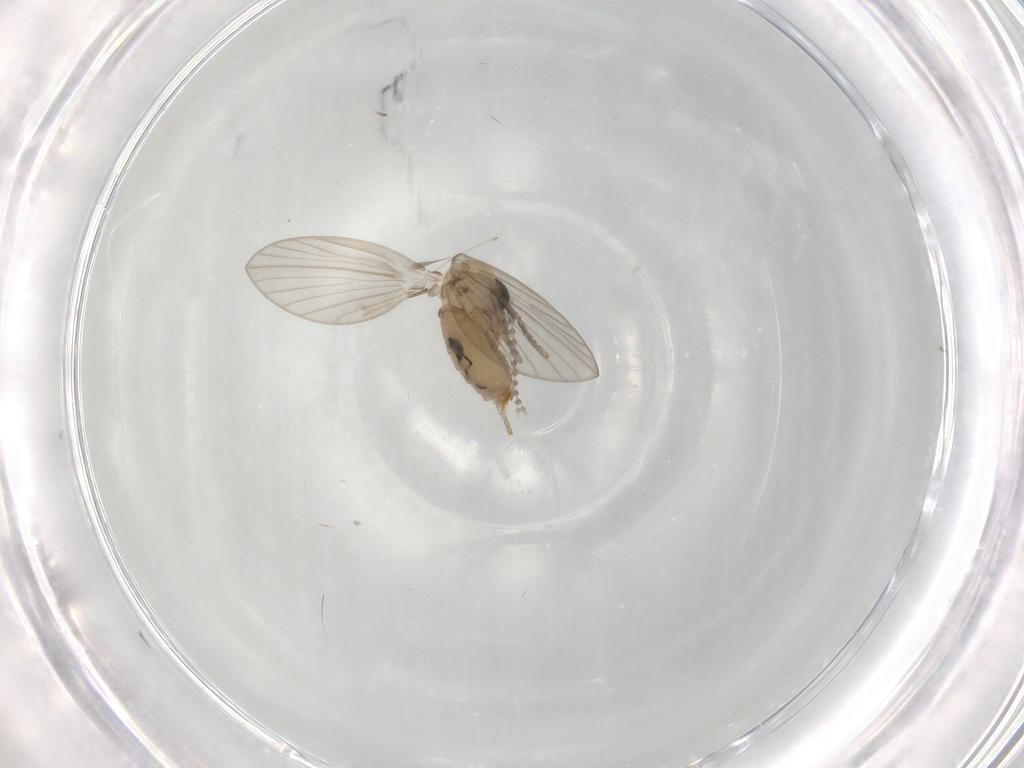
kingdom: Animalia
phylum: Arthropoda
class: Insecta
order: Diptera
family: Psychodidae
